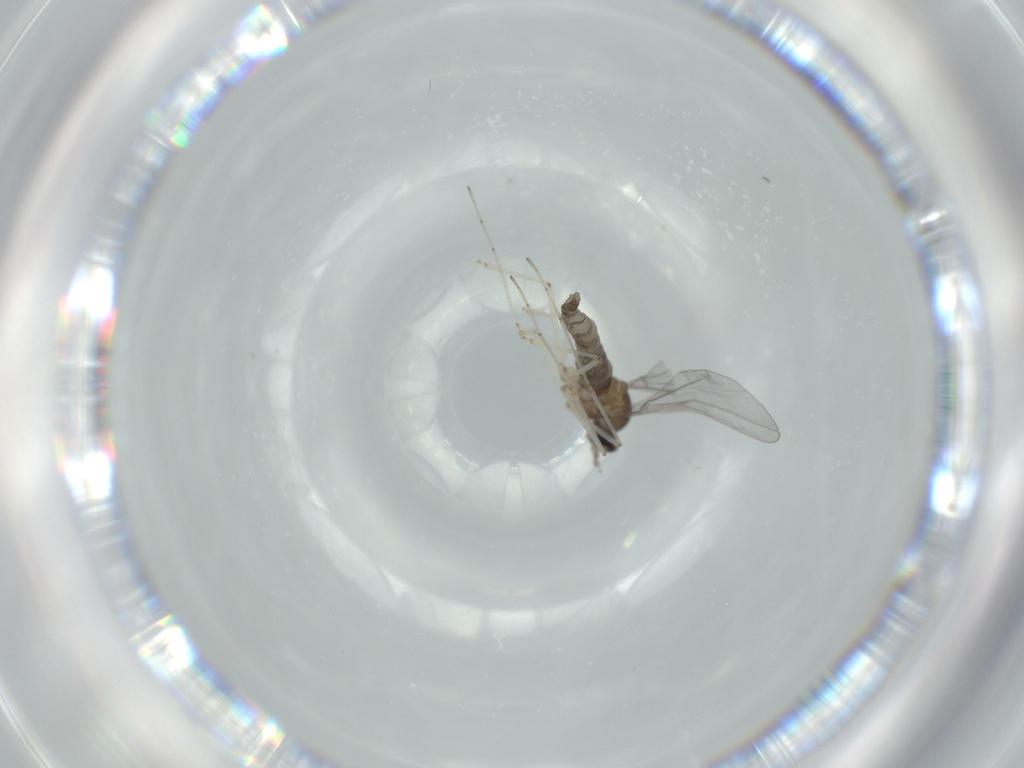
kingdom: Animalia
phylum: Arthropoda
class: Insecta
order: Diptera
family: Cecidomyiidae
